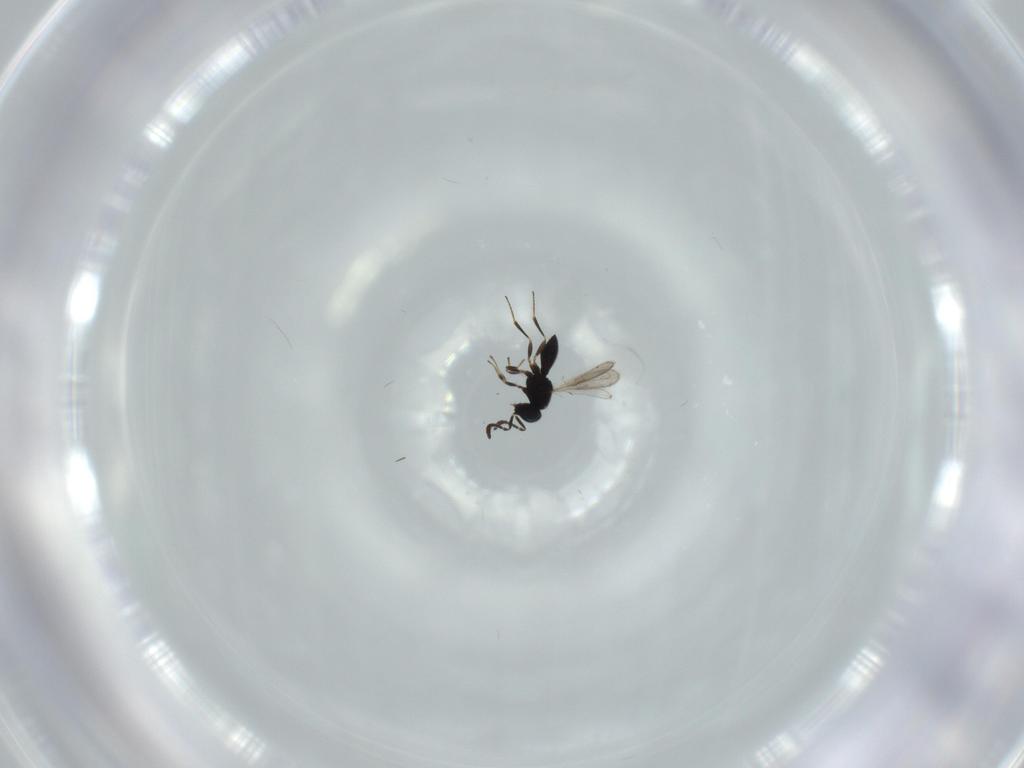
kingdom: Animalia
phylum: Arthropoda
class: Insecta
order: Hymenoptera
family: Scelionidae
